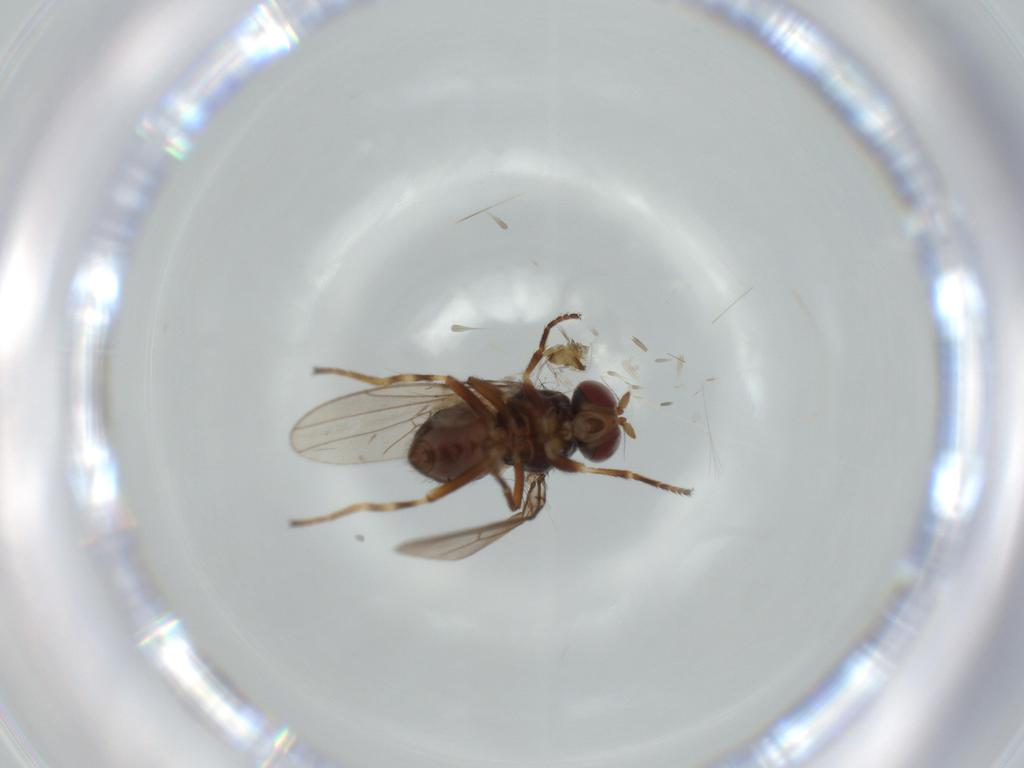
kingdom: Animalia
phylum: Arthropoda
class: Insecta
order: Diptera
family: Ephydridae
